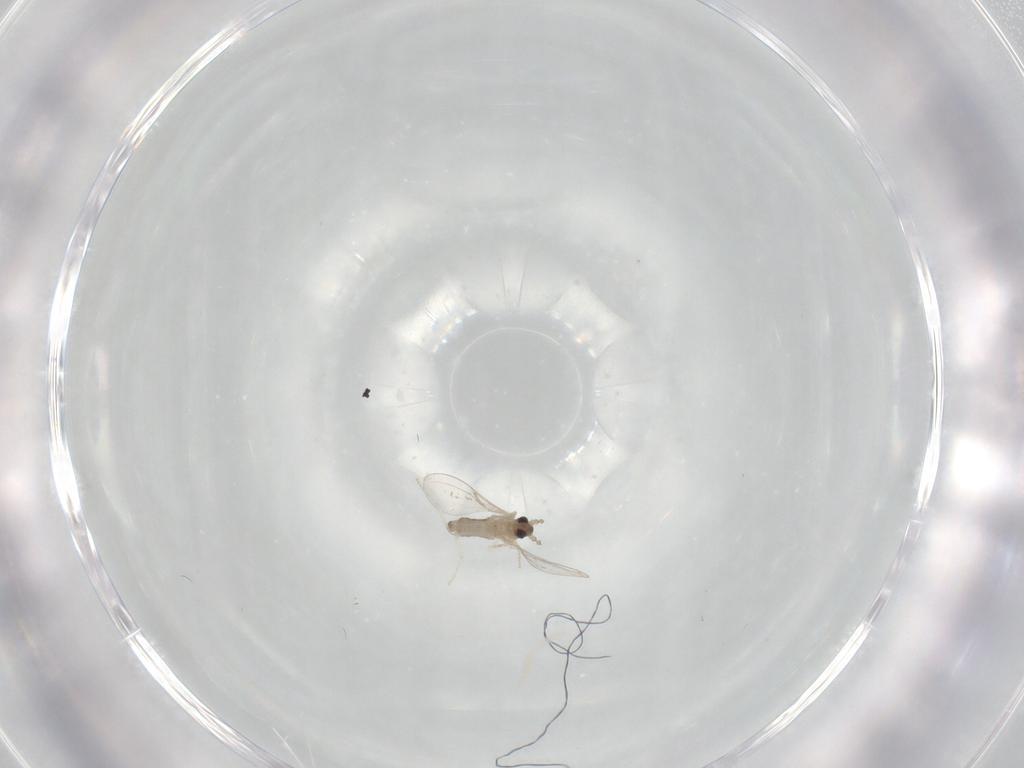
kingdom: Animalia
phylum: Arthropoda
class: Insecta
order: Diptera
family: Cecidomyiidae
